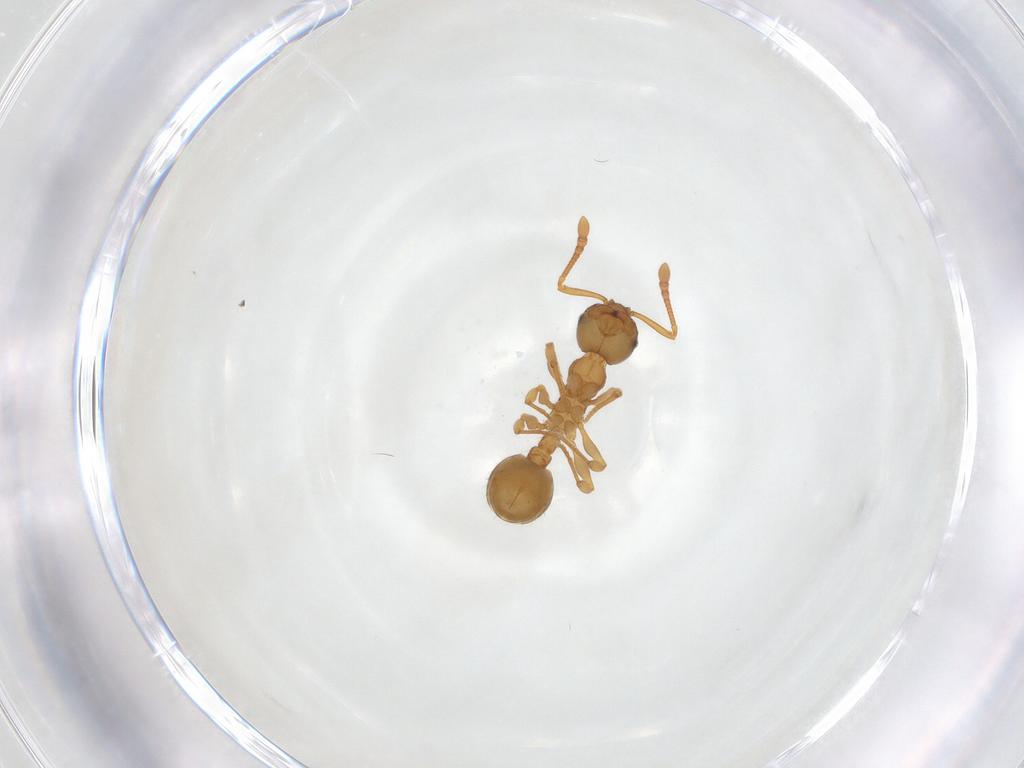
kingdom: Animalia
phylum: Arthropoda
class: Insecta
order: Hymenoptera
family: Formicidae
